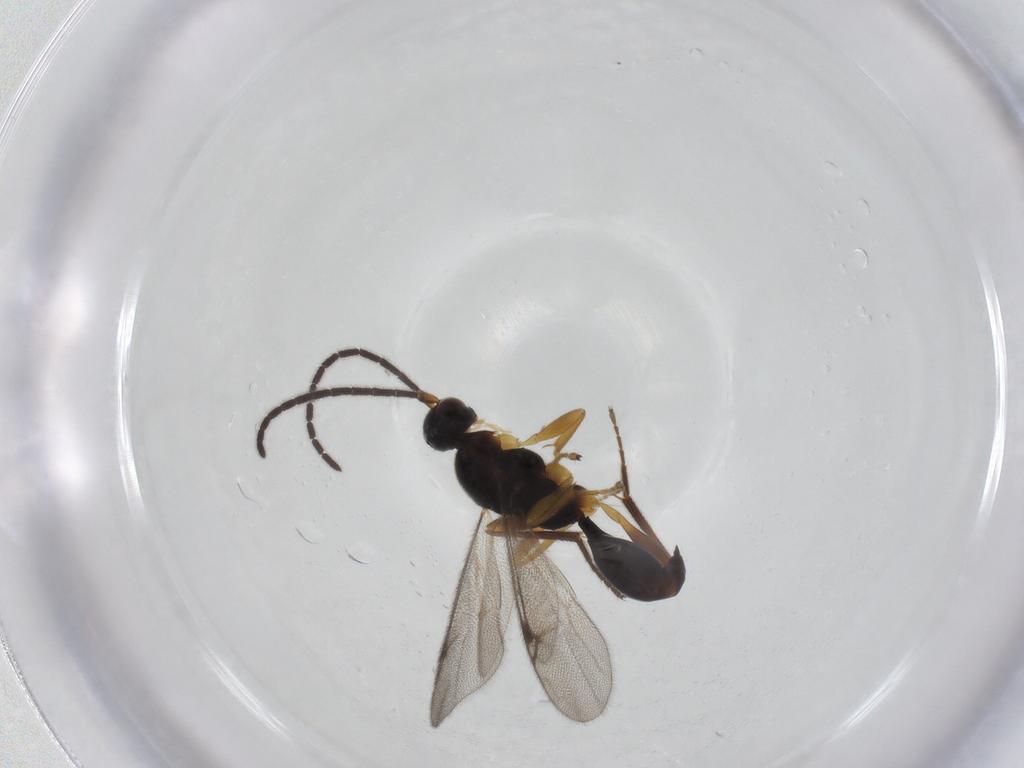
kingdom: Animalia
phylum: Arthropoda
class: Insecta
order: Hymenoptera
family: Proctotrupidae
